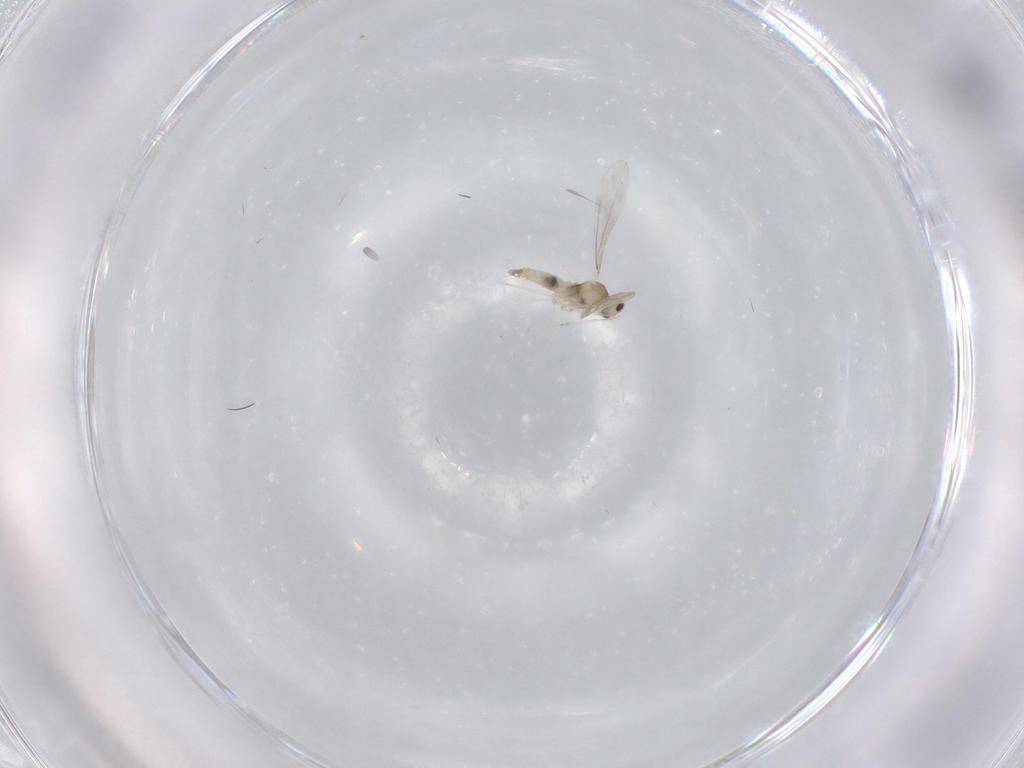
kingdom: Animalia
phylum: Arthropoda
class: Insecta
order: Diptera
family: Cecidomyiidae
